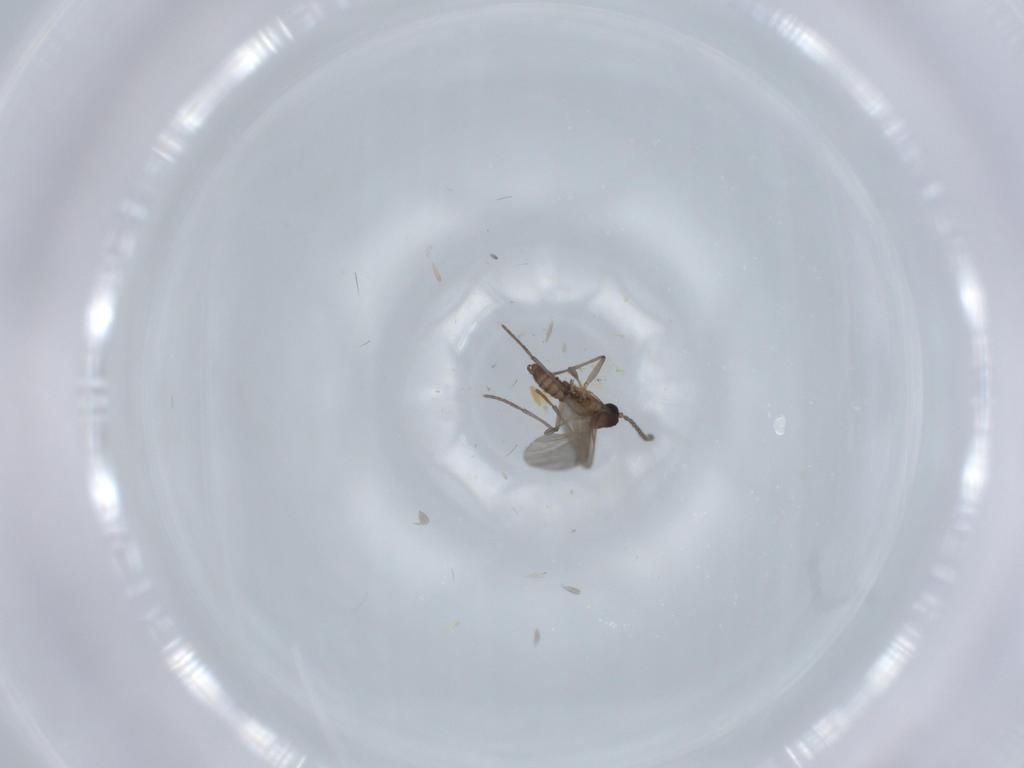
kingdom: Animalia
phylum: Arthropoda
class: Insecta
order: Diptera
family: Sciaridae
